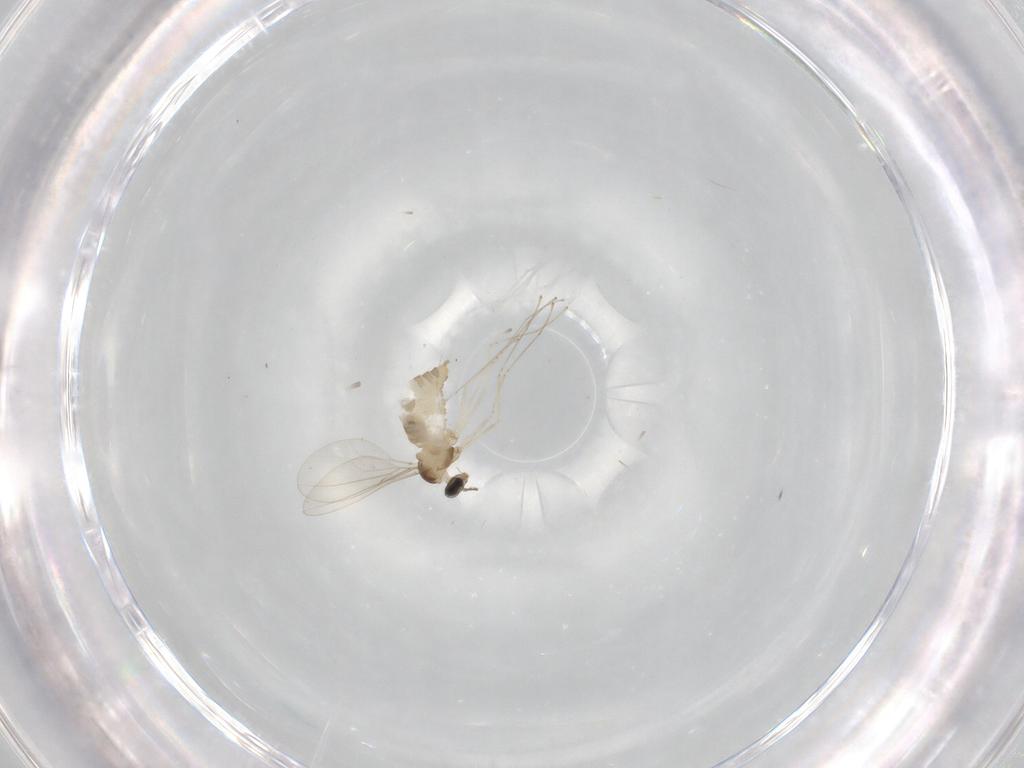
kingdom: Animalia
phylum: Arthropoda
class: Insecta
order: Diptera
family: Cecidomyiidae
